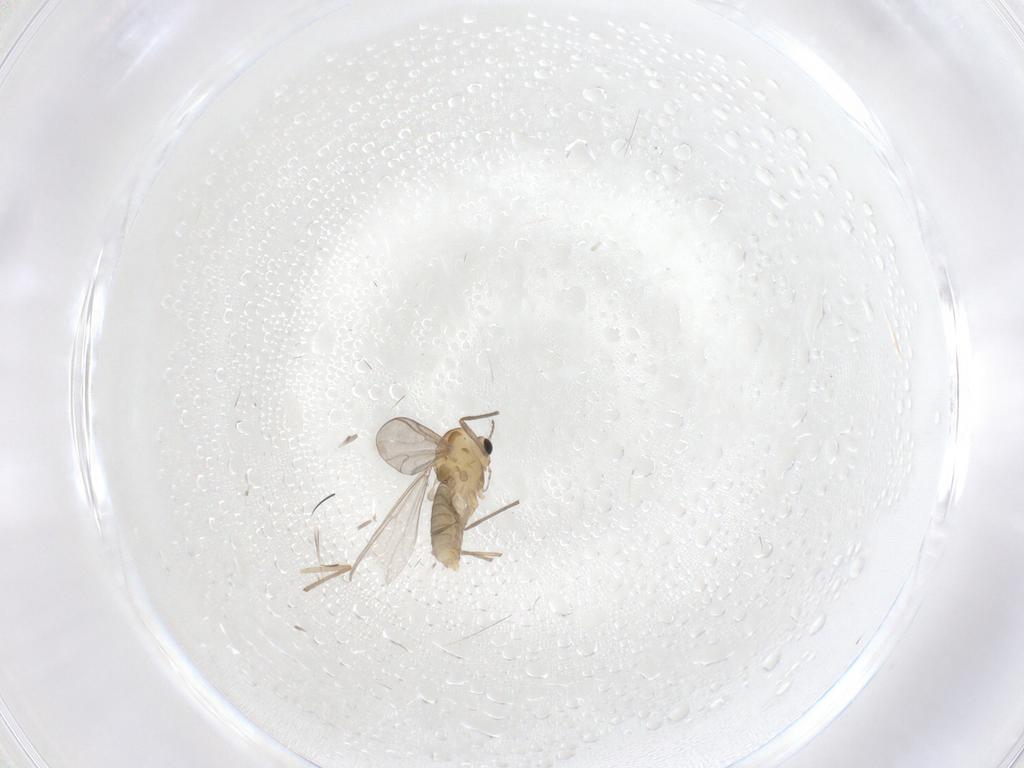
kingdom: Animalia
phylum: Arthropoda
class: Insecta
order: Diptera
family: Chironomidae
